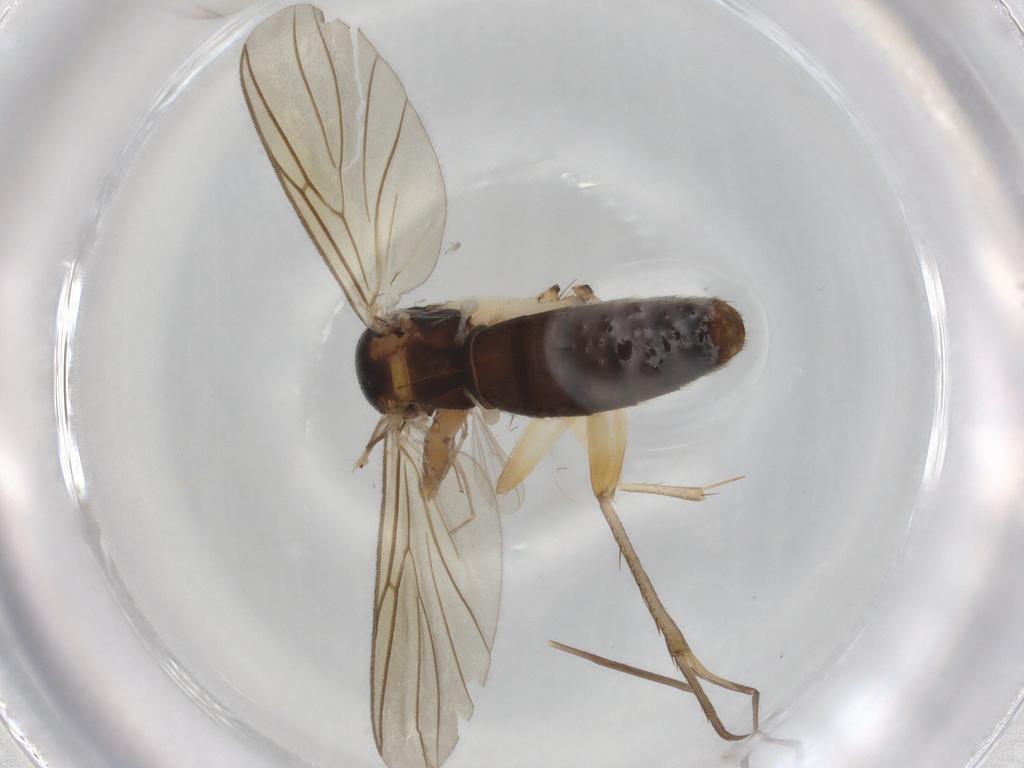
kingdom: Animalia
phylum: Arthropoda
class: Insecta
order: Diptera
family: Mycetophilidae
